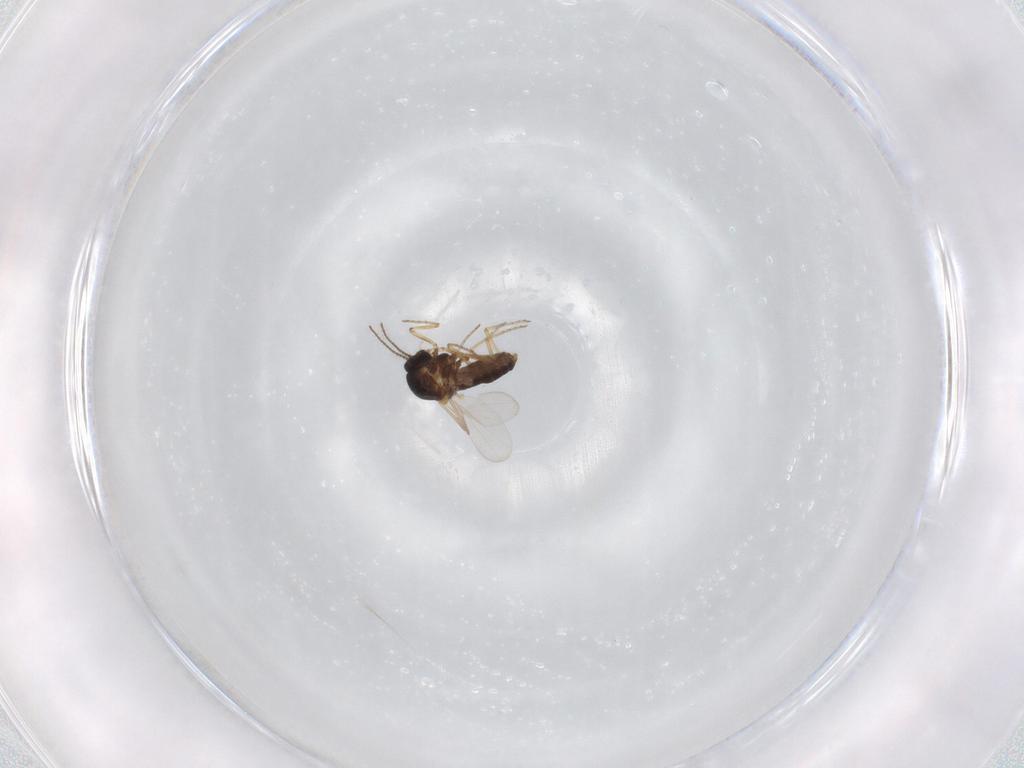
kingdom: Animalia
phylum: Arthropoda
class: Insecta
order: Diptera
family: Ceratopogonidae
